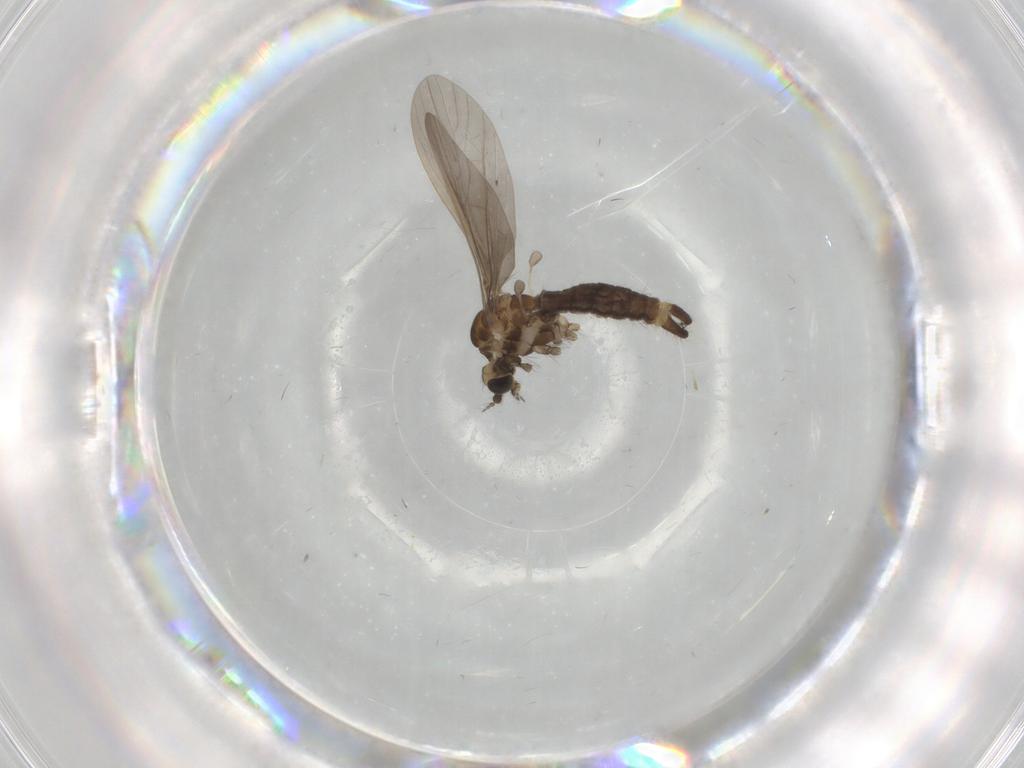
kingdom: Animalia
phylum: Arthropoda
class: Insecta
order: Diptera
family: Limoniidae
